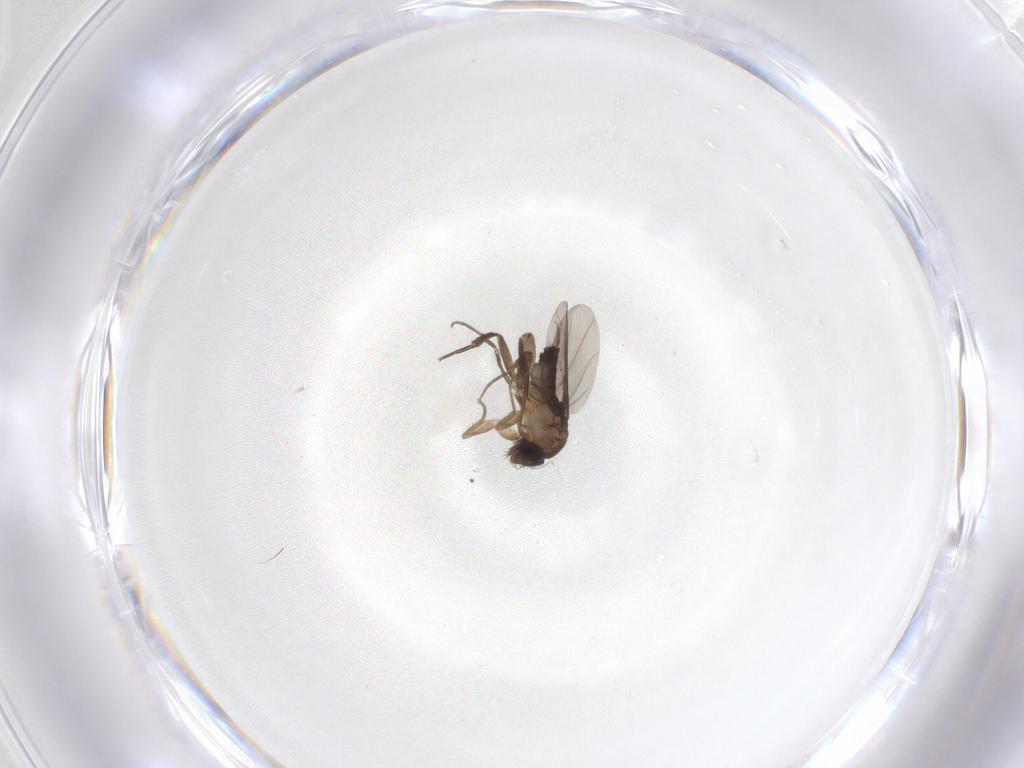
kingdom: Animalia
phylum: Arthropoda
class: Insecta
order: Diptera
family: Phoridae
